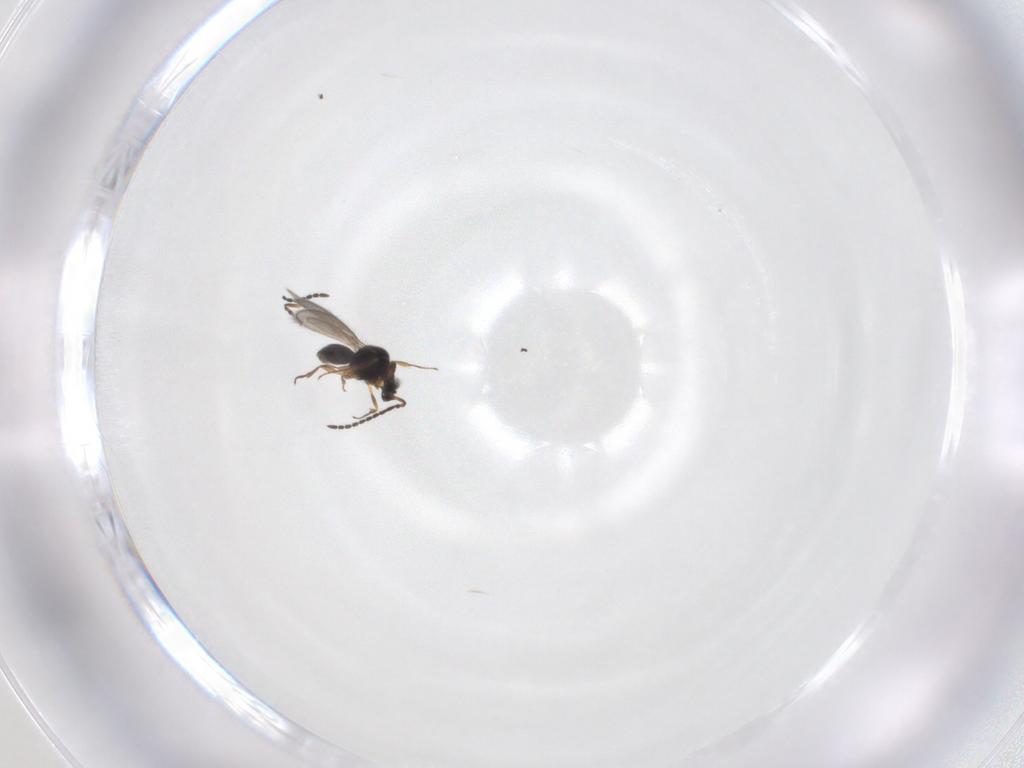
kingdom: Animalia
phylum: Arthropoda
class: Insecta
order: Hymenoptera
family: Scelionidae
